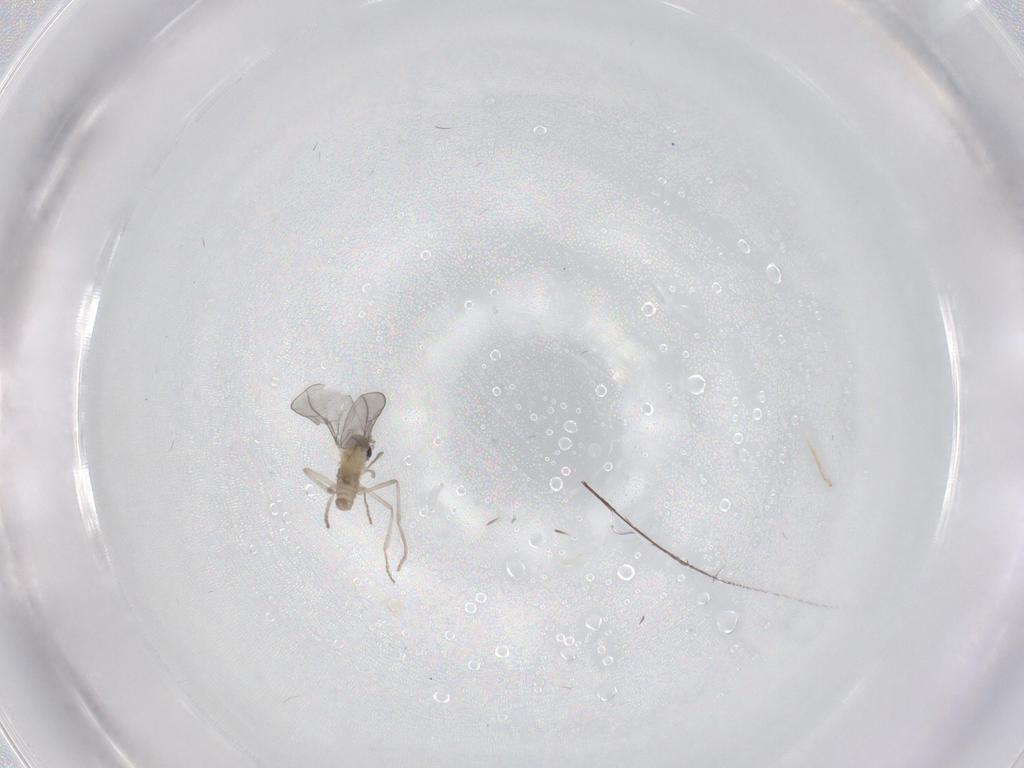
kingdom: Animalia
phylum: Arthropoda
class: Insecta
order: Diptera
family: Cecidomyiidae
